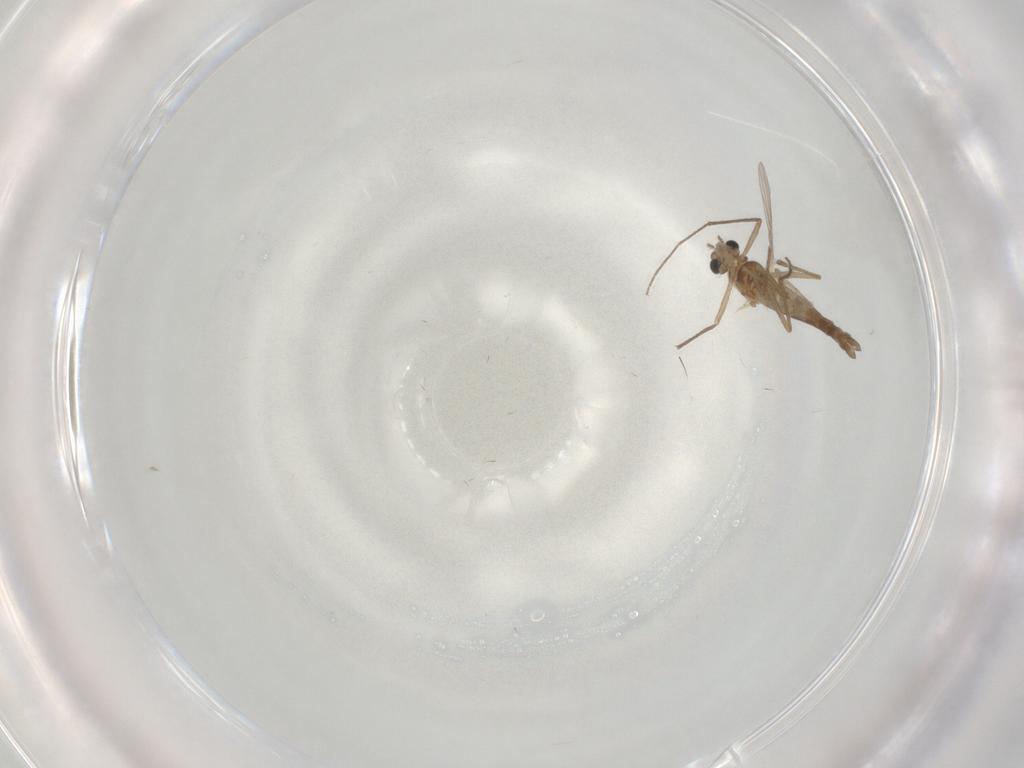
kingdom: Animalia
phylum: Arthropoda
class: Insecta
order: Diptera
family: Chironomidae
